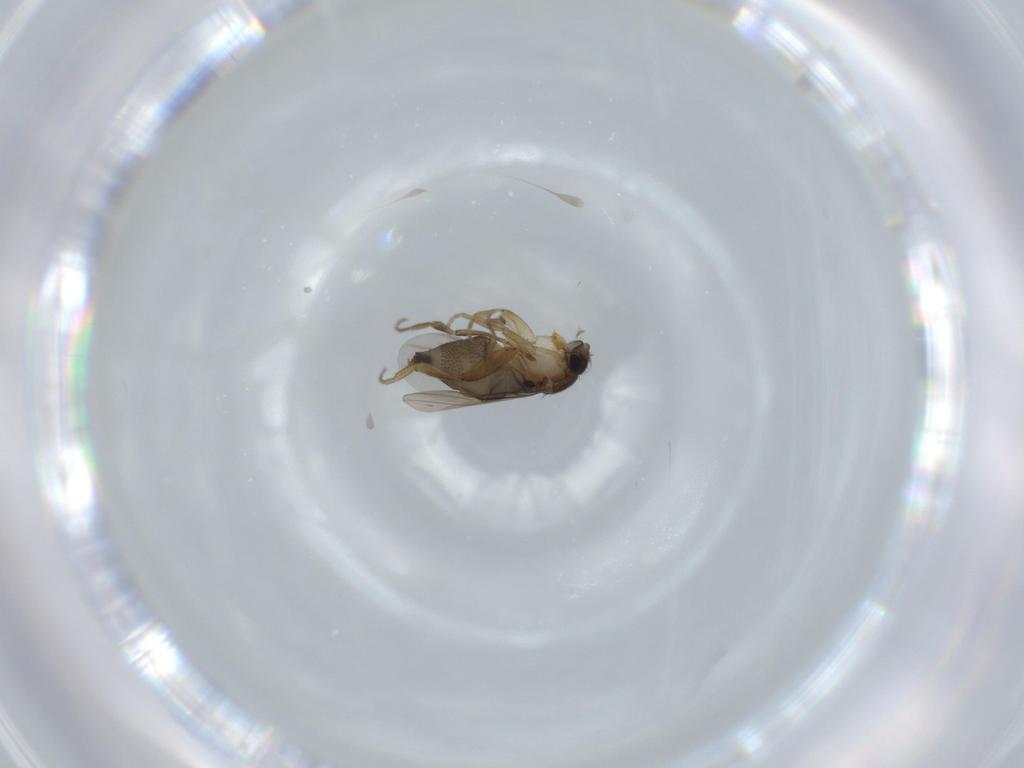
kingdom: Animalia
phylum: Arthropoda
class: Insecta
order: Diptera
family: Phoridae
